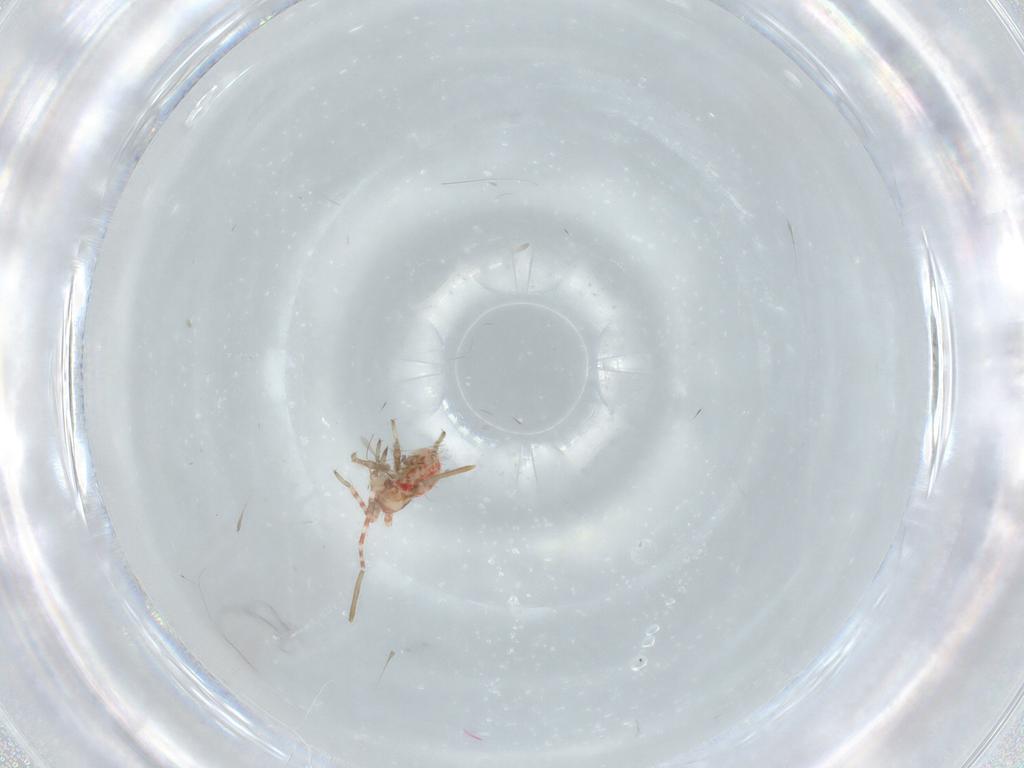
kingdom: Animalia
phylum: Arthropoda
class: Insecta
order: Hemiptera
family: Miridae
